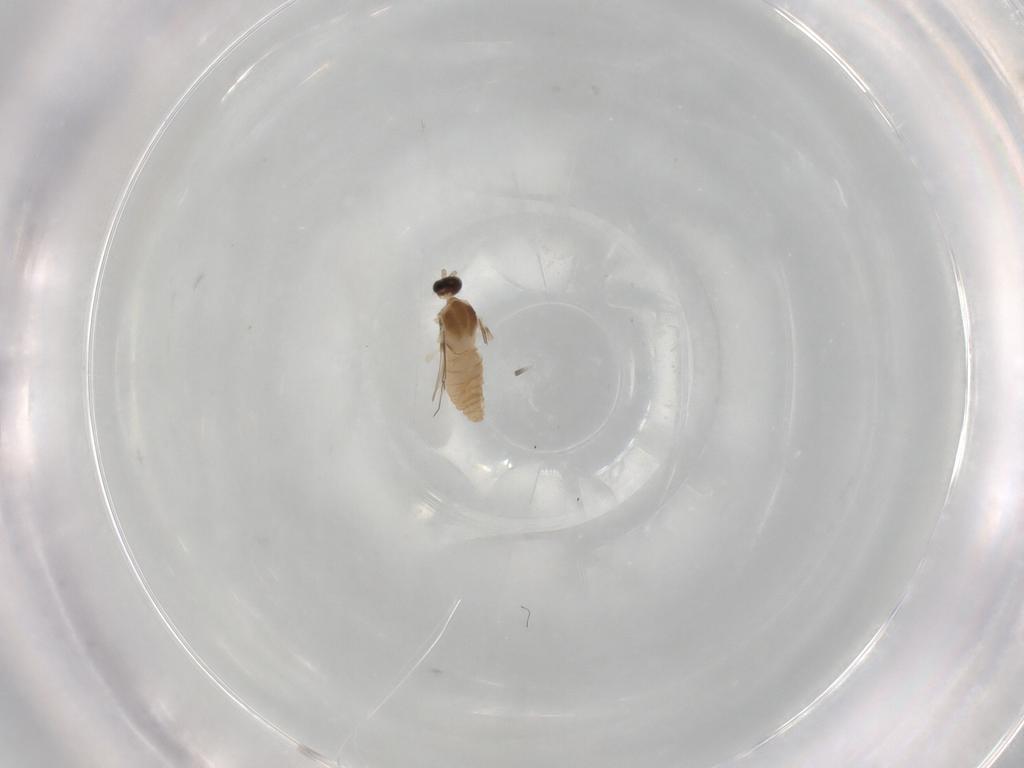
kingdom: Animalia
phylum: Arthropoda
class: Insecta
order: Diptera
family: Cecidomyiidae
